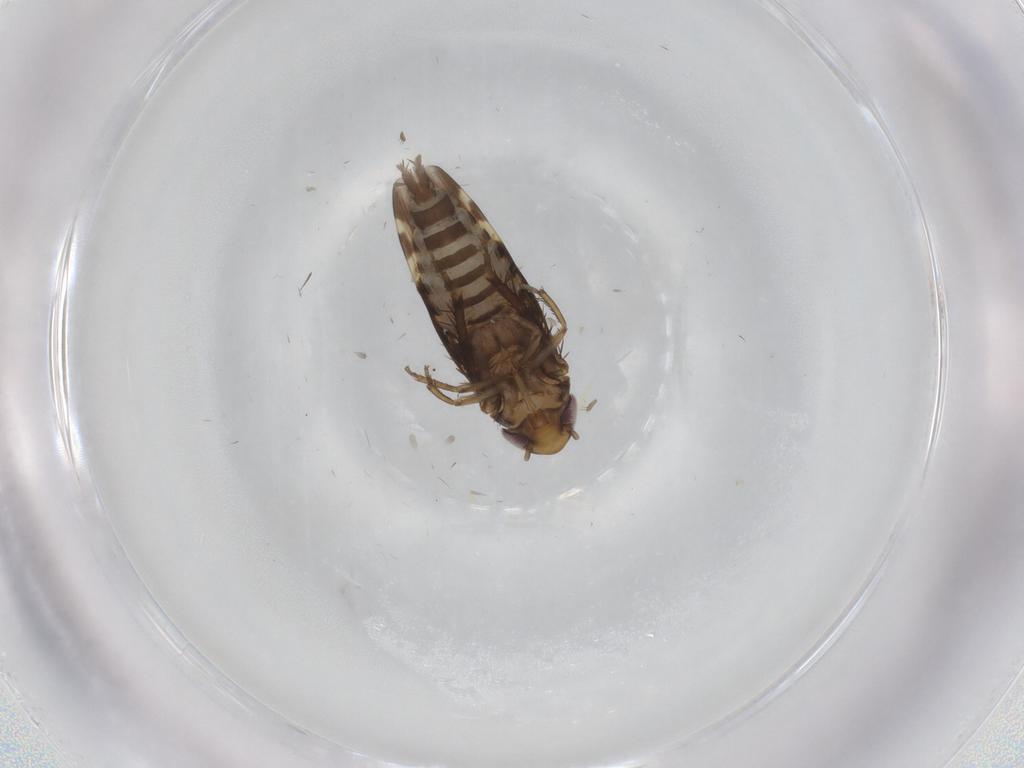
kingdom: Animalia
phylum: Arthropoda
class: Insecta
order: Hemiptera
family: Cicadellidae
